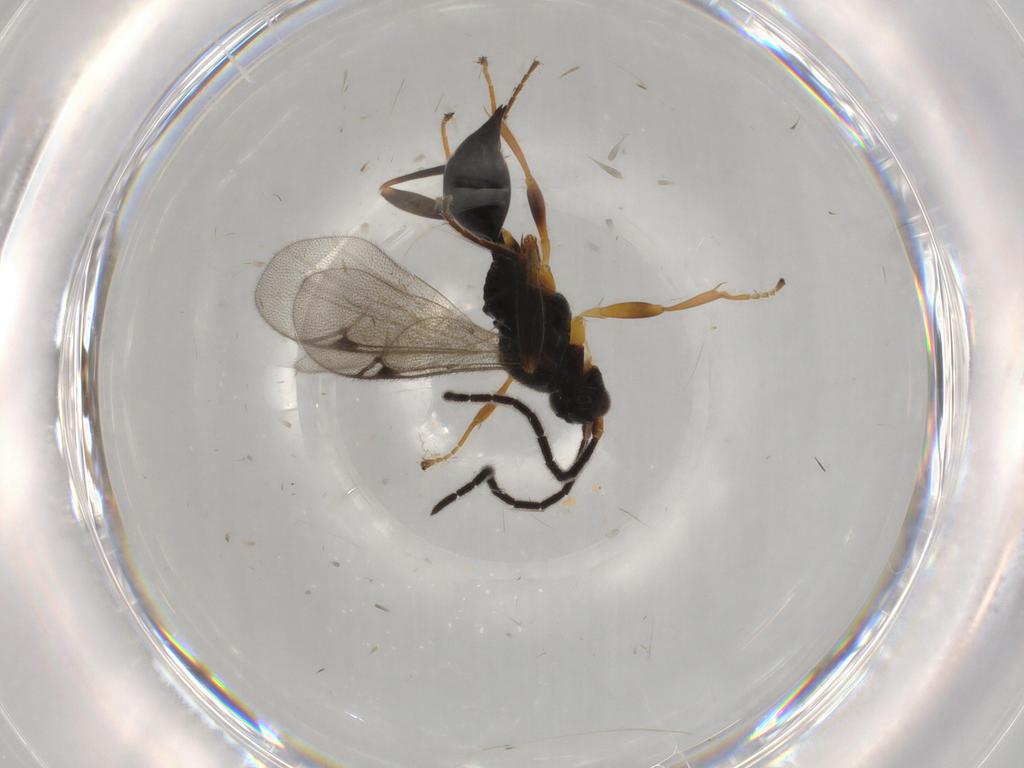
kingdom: Animalia
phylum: Arthropoda
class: Insecta
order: Hymenoptera
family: Proctotrupidae
